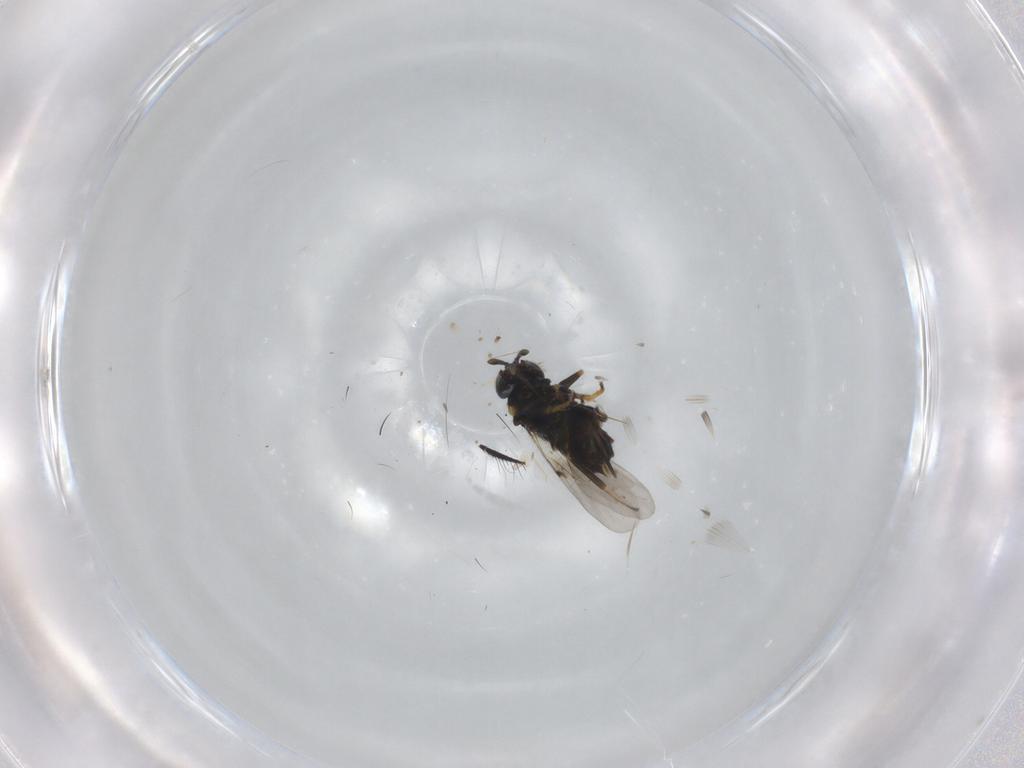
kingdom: Animalia
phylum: Arthropoda
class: Insecta
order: Hymenoptera
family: Encyrtidae
